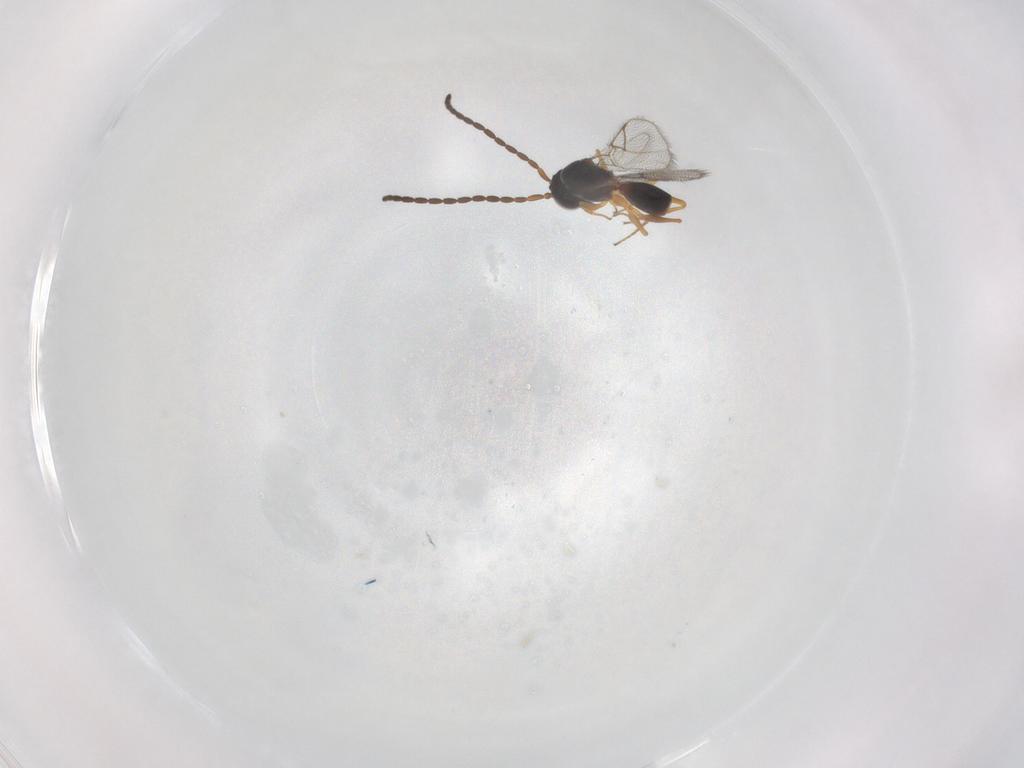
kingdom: Animalia
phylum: Arthropoda
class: Insecta
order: Hymenoptera
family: Figitidae
